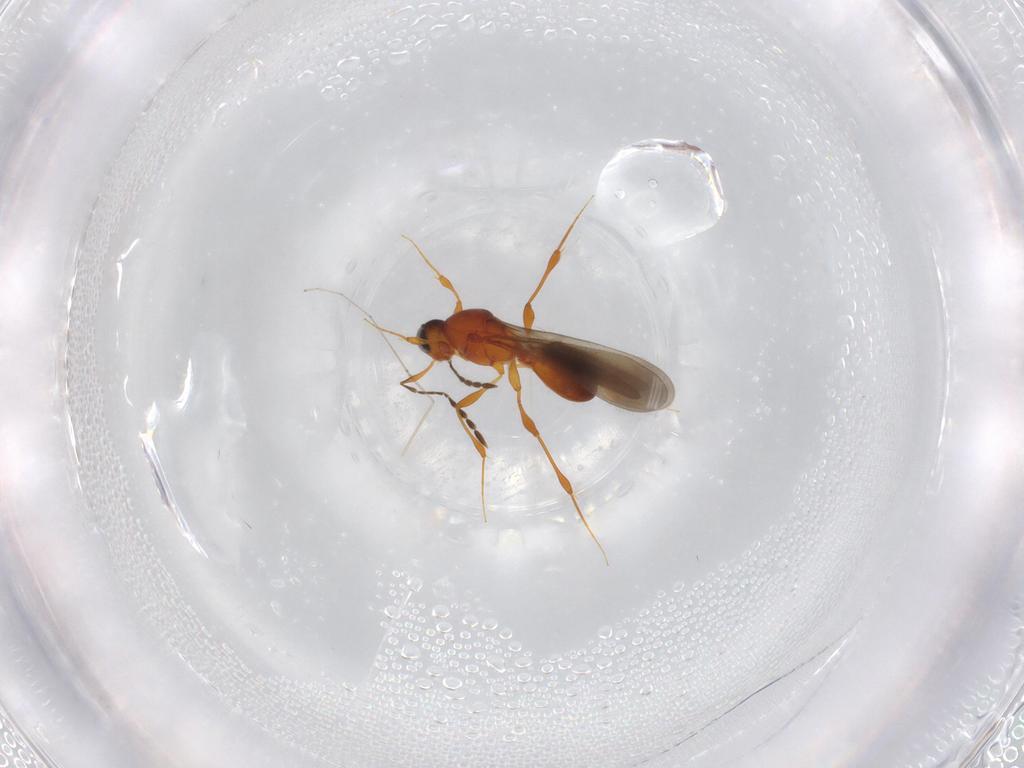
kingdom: Animalia
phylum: Arthropoda
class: Insecta
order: Hymenoptera
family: Platygastridae
